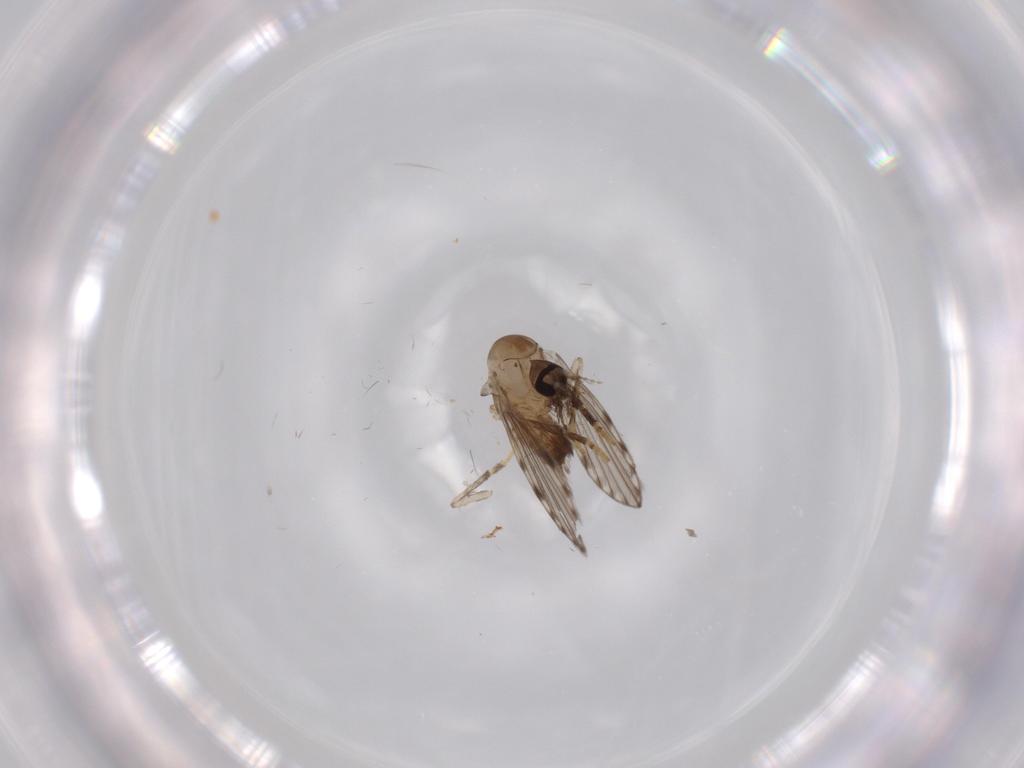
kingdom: Animalia
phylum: Arthropoda
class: Insecta
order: Diptera
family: Psychodidae
